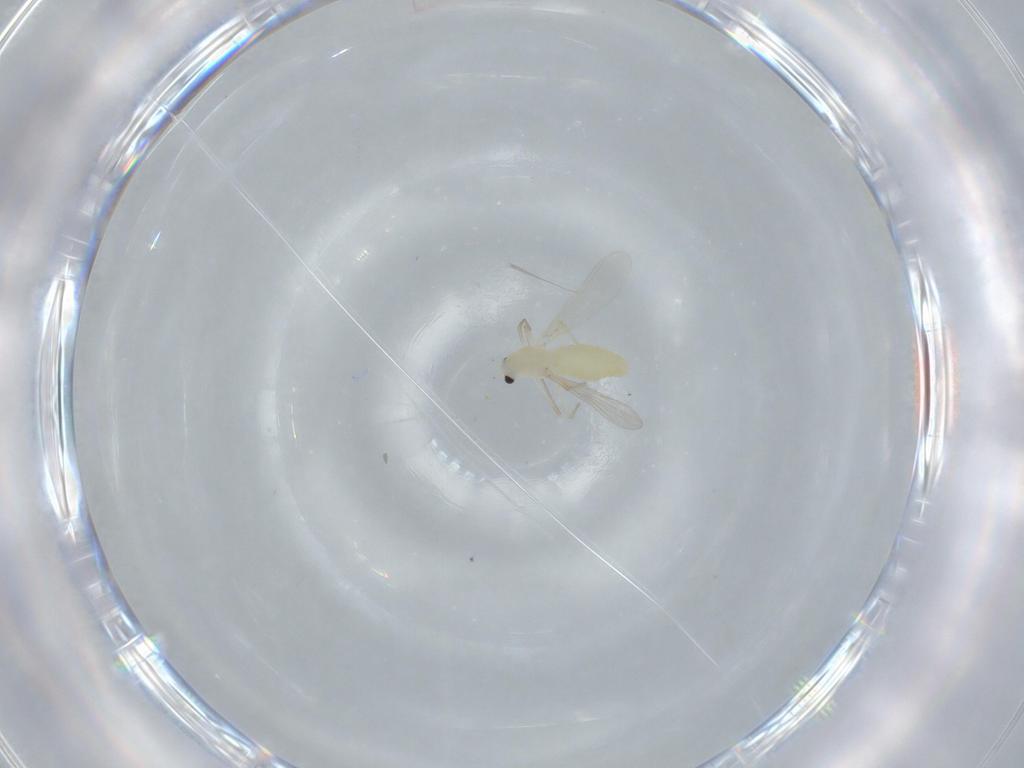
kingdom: Animalia
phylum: Arthropoda
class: Insecta
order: Diptera
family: Chironomidae
